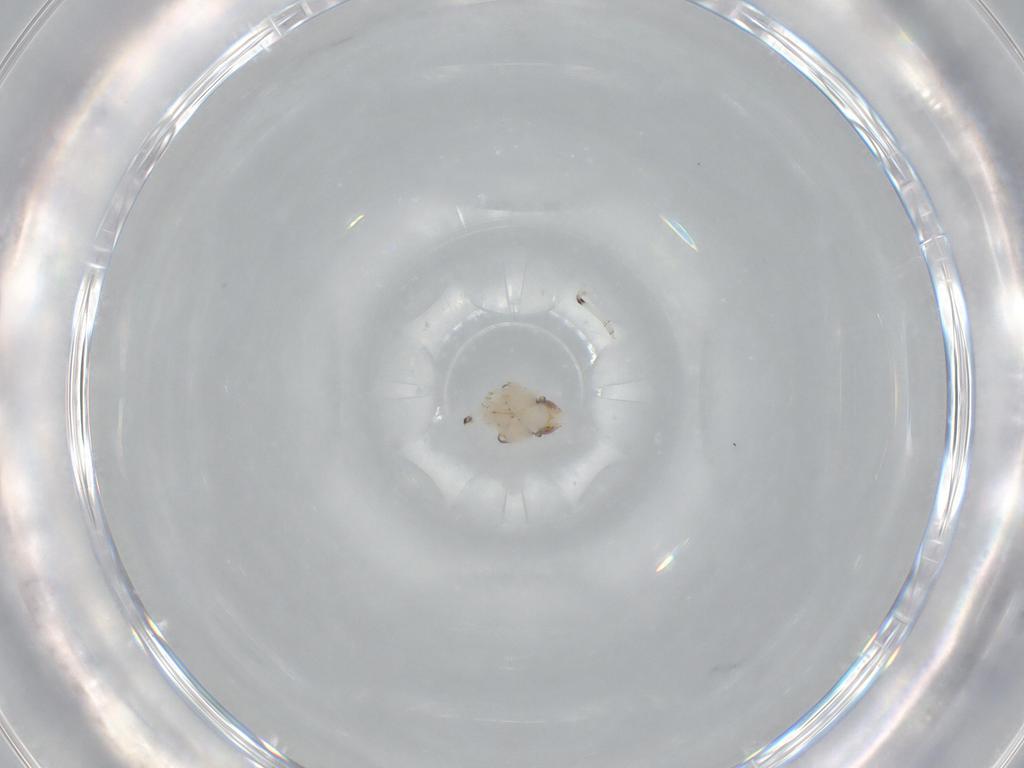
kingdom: Animalia
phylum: Arthropoda
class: Insecta
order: Hemiptera
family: Nogodinidae
